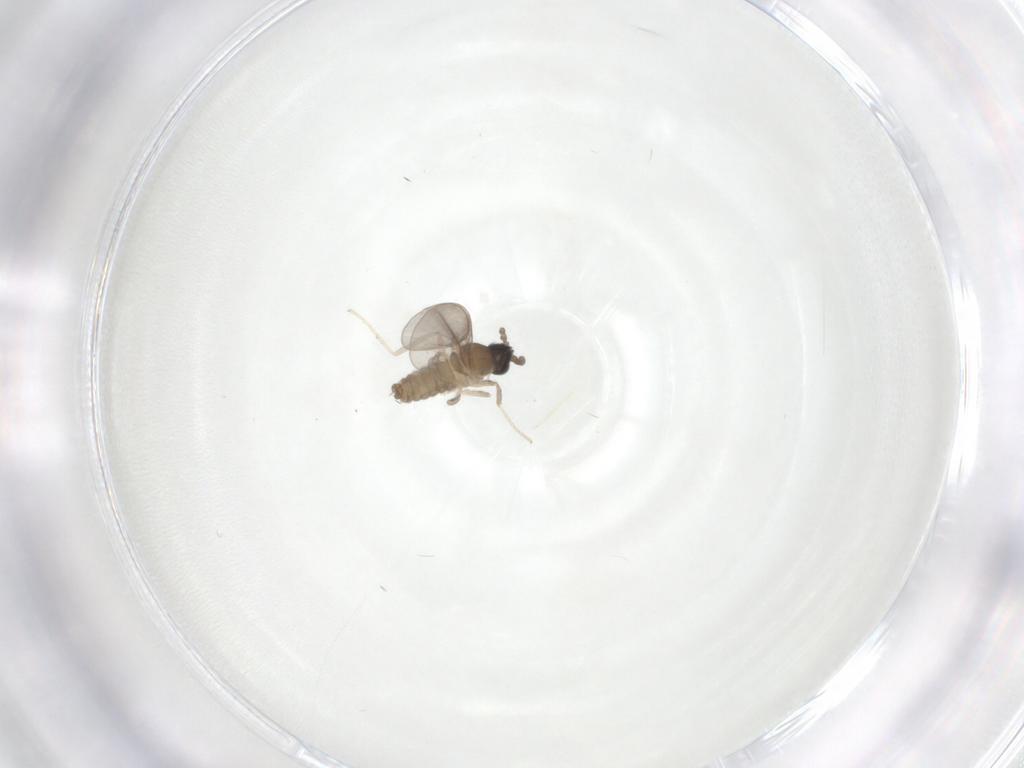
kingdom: Animalia
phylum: Arthropoda
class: Insecta
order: Diptera
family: Cecidomyiidae
